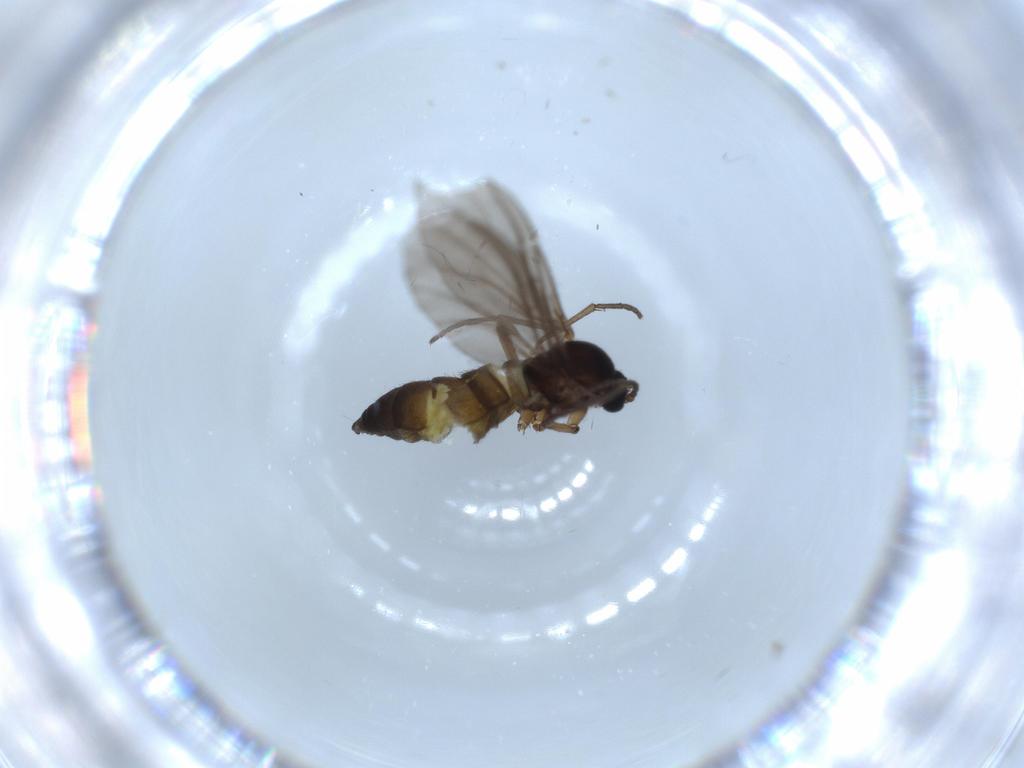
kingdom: Animalia
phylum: Arthropoda
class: Insecta
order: Diptera
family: Sciaridae
